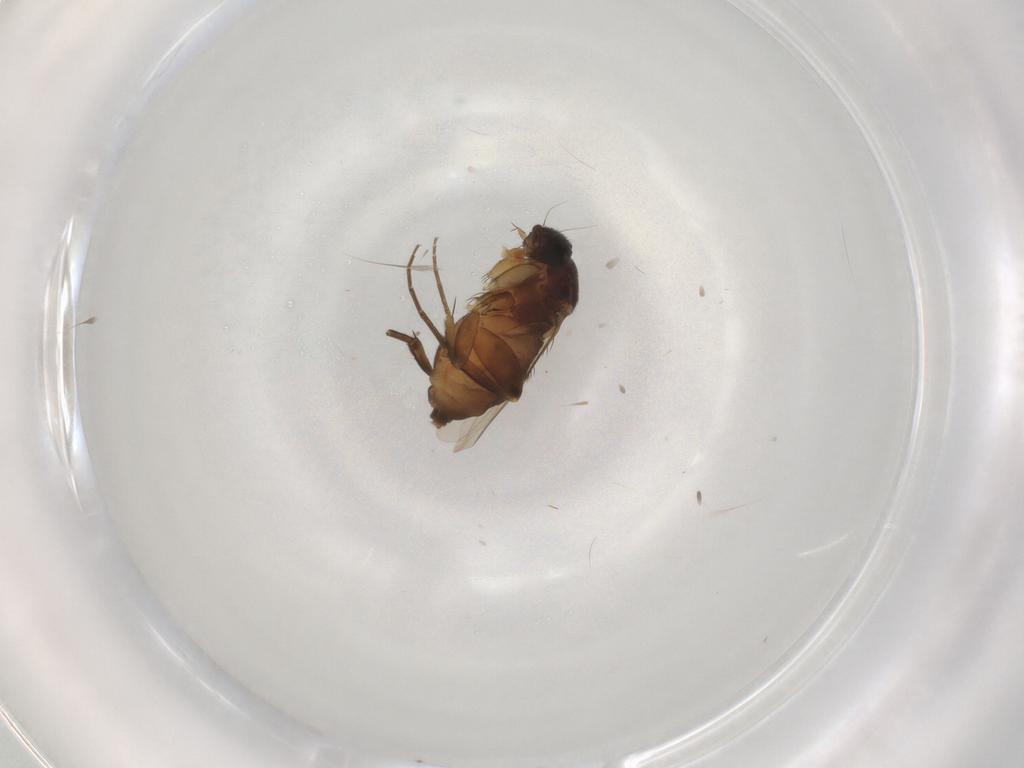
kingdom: Animalia
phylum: Arthropoda
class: Insecta
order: Diptera
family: Phoridae
